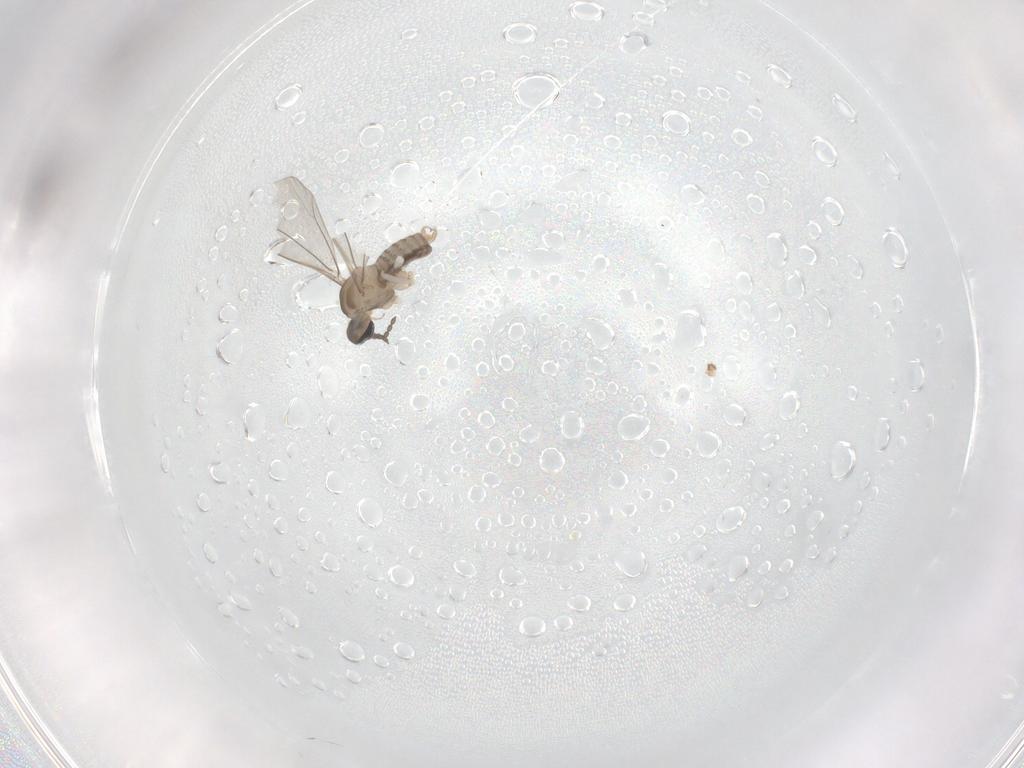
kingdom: Animalia
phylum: Arthropoda
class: Insecta
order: Diptera
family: Cecidomyiidae
